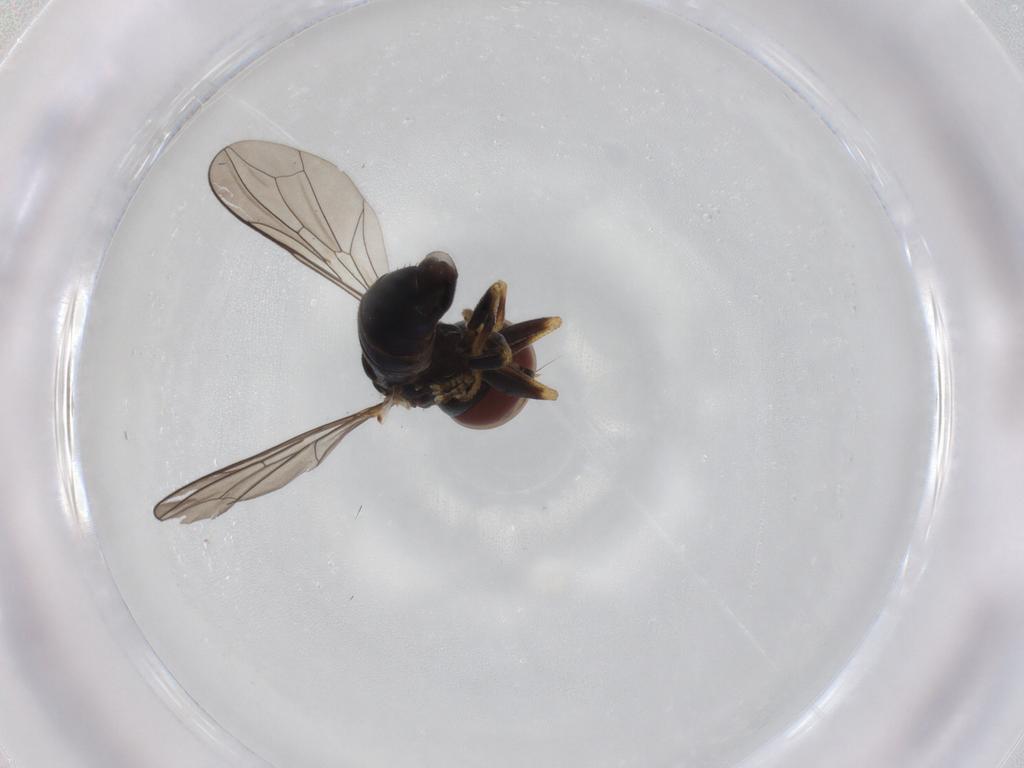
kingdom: Animalia
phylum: Arthropoda
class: Insecta
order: Diptera
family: Pipunculidae
